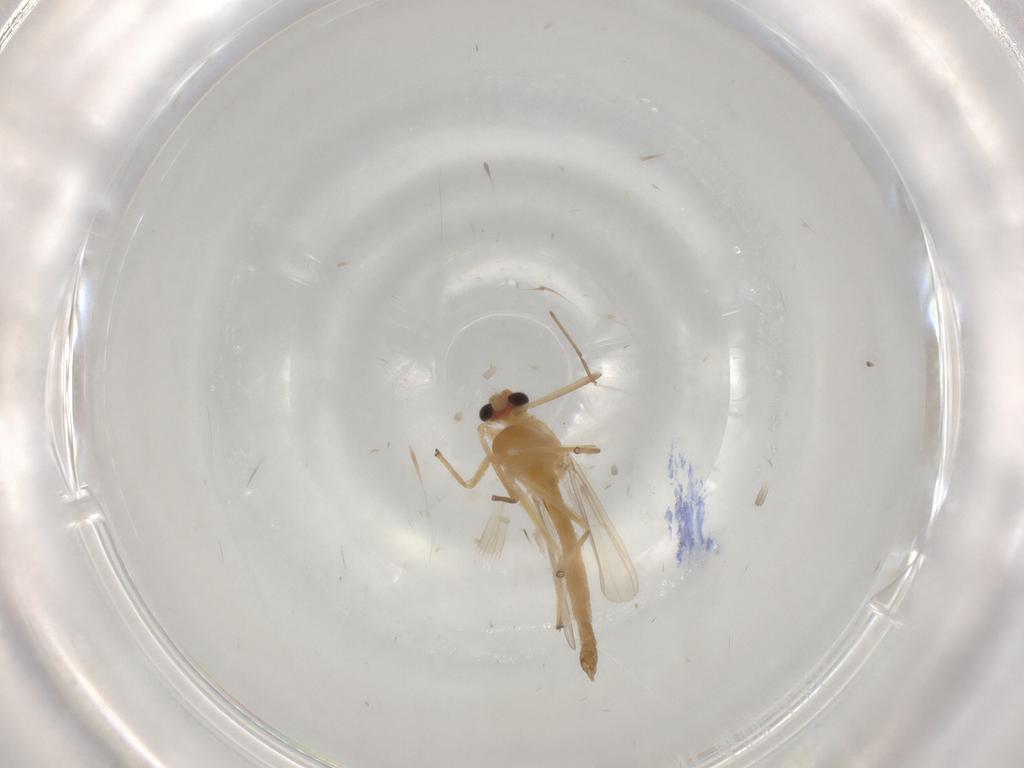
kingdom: Animalia
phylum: Arthropoda
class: Insecta
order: Diptera
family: Chironomidae
